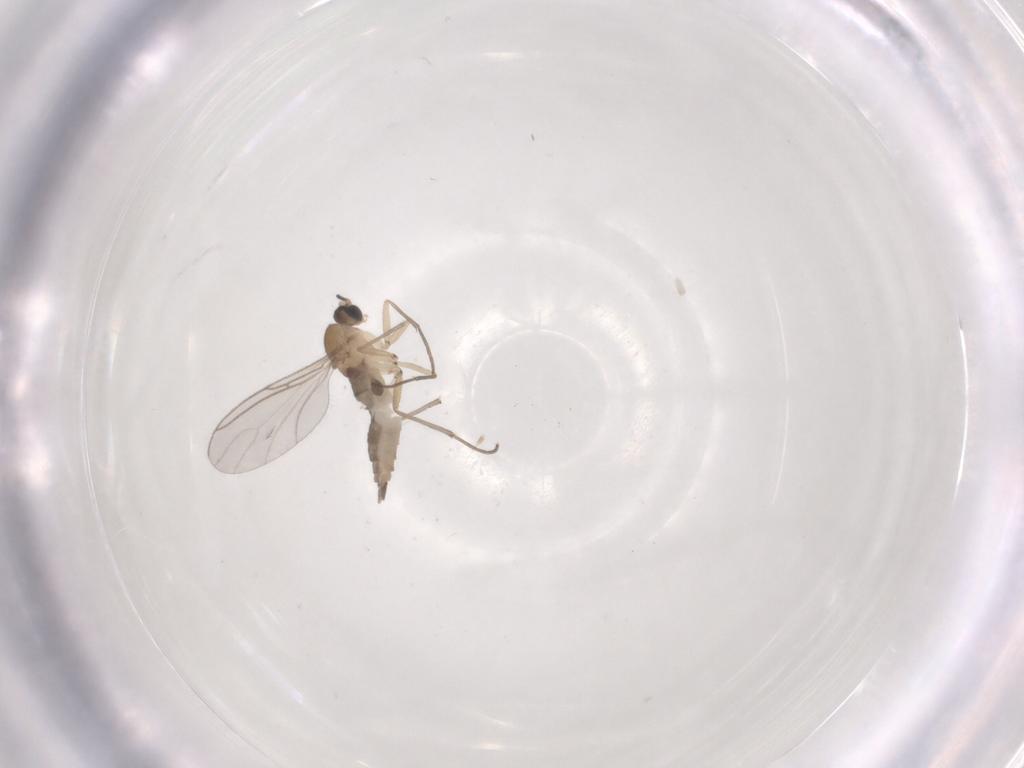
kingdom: Animalia
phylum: Arthropoda
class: Insecta
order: Diptera
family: Sciaridae
